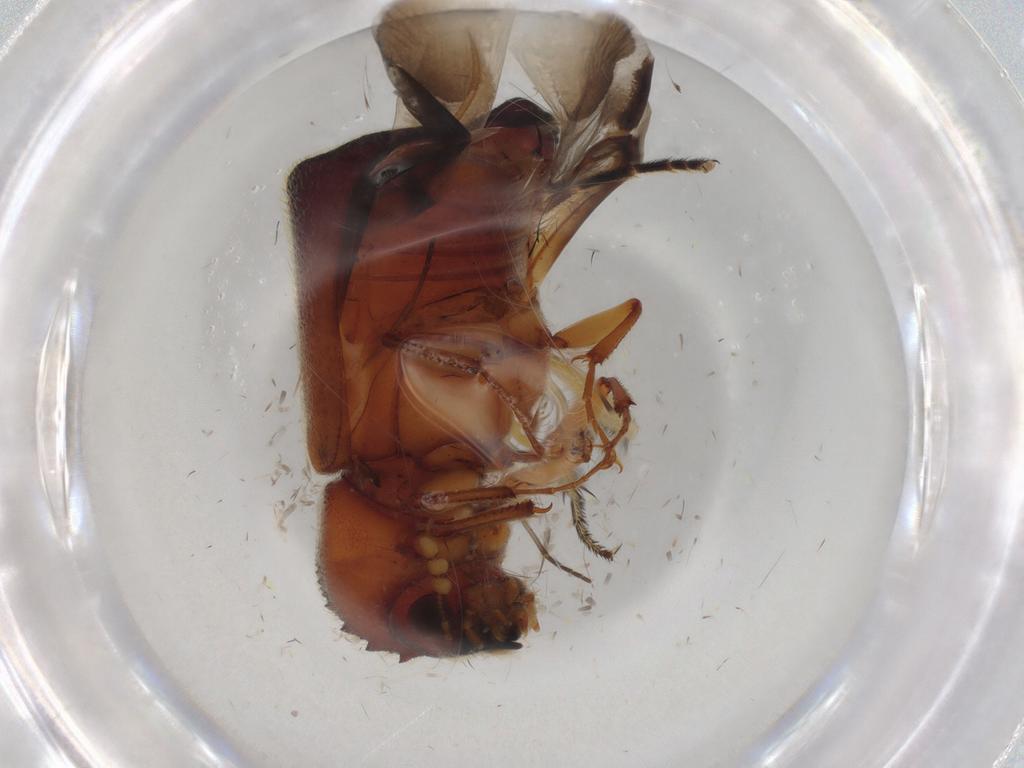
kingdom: Animalia
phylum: Arthropoda
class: Insecta
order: Coleoptera
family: Bostrichidae
